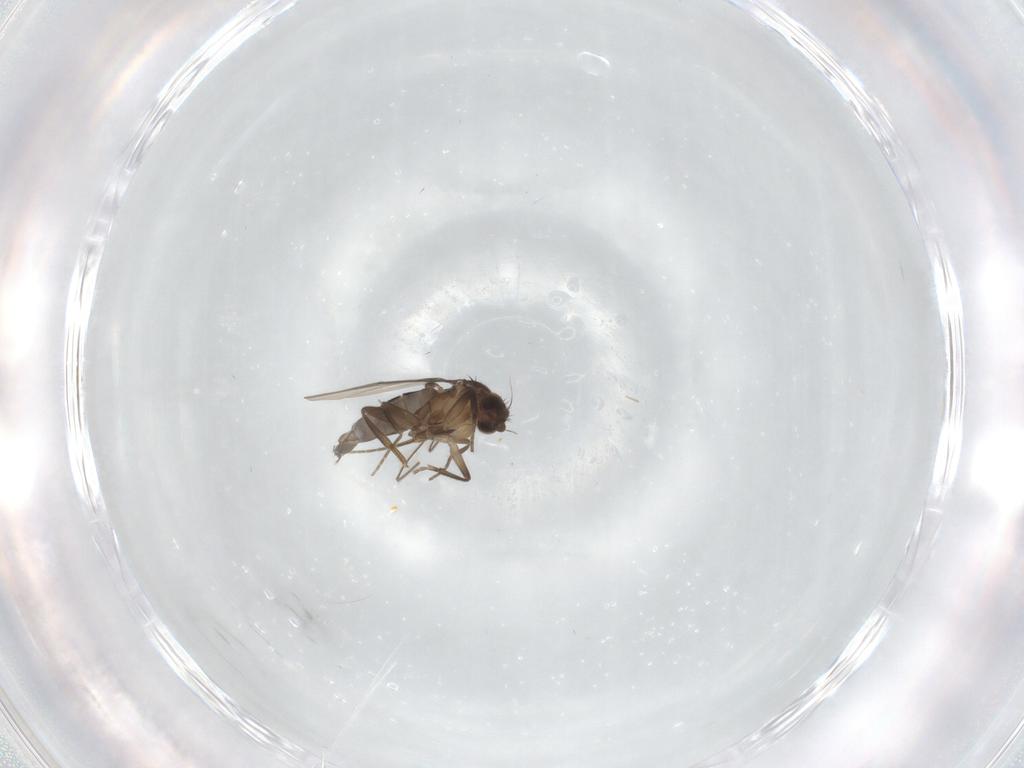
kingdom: Animalia
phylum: Arthropoda
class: Insecta
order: Diptera
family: Phoridae
